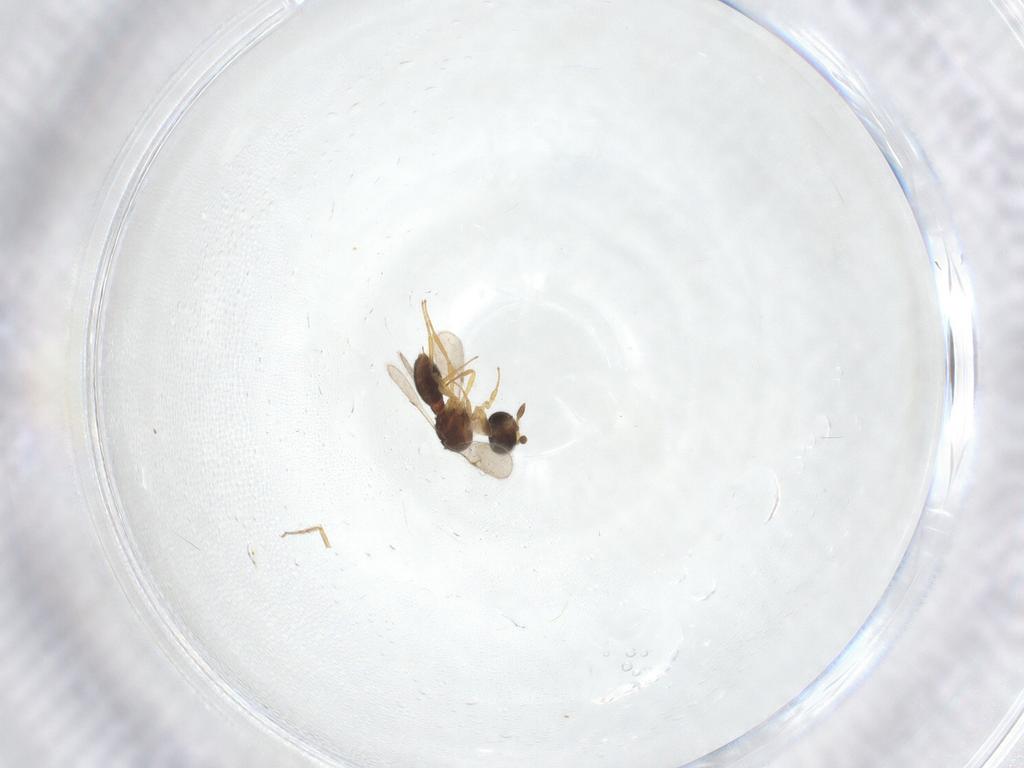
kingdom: Animalia
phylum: Arthropoda
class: Insecta
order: Hymenoptera
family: Scelionidae
